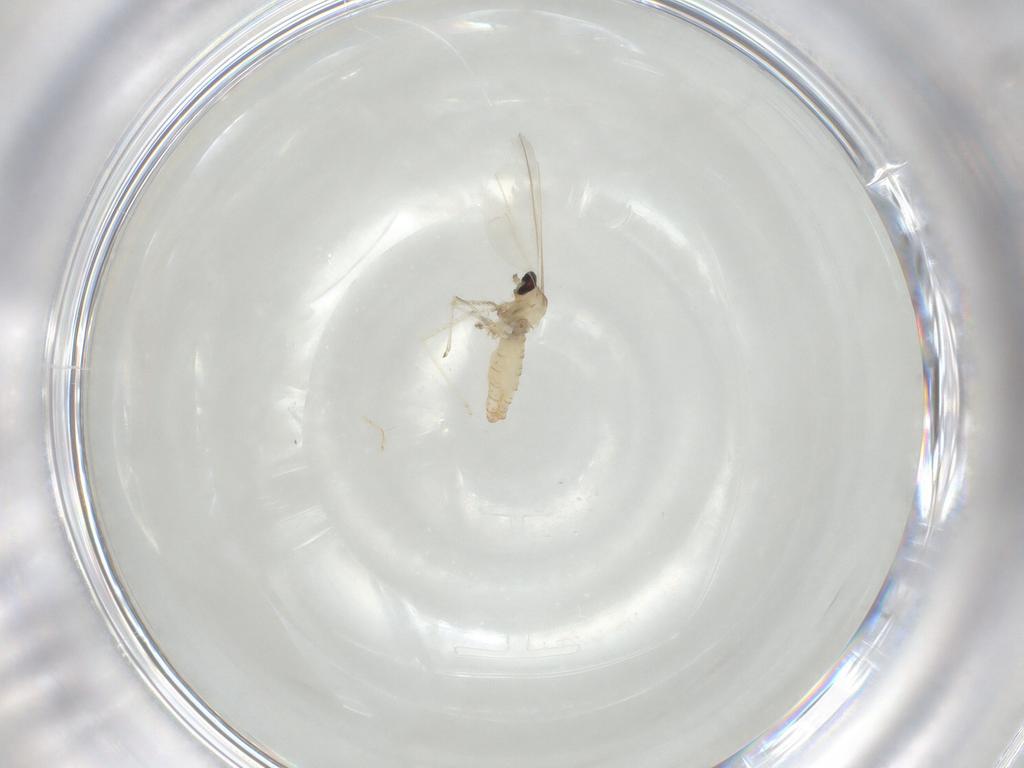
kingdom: Animalia
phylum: Arthropoda
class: Insecta
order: Diptera
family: Cecidomyiidae
